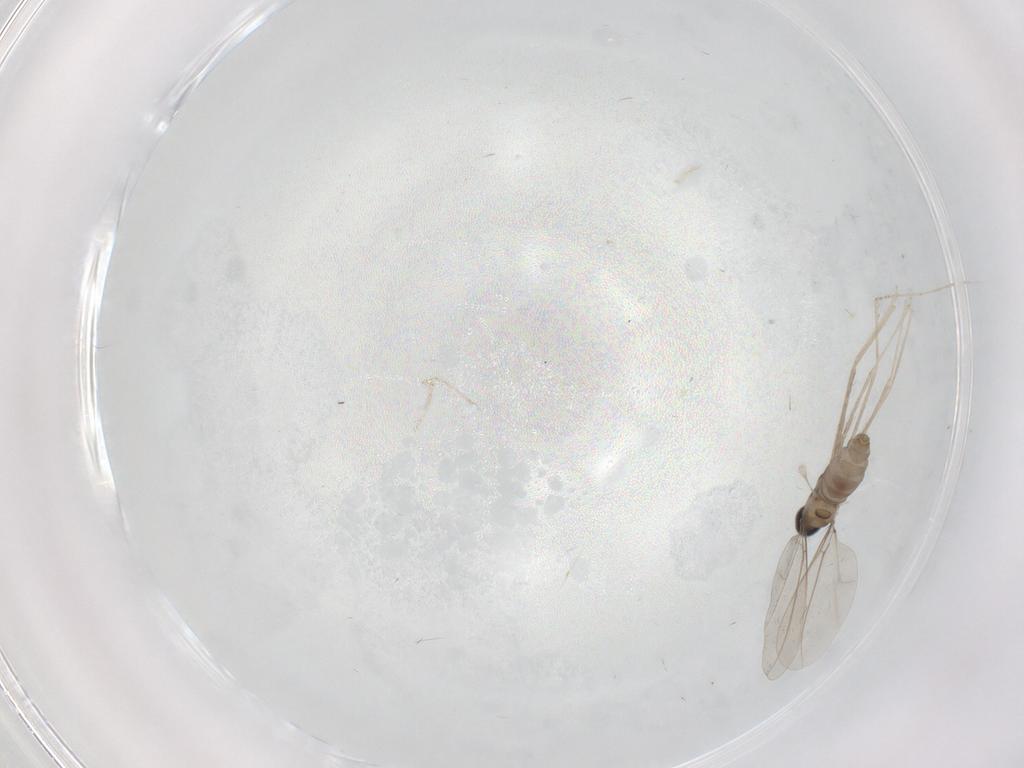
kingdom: Animalia
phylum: Arthropoda
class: Insecta
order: Diptera
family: Cecidomyiidae
